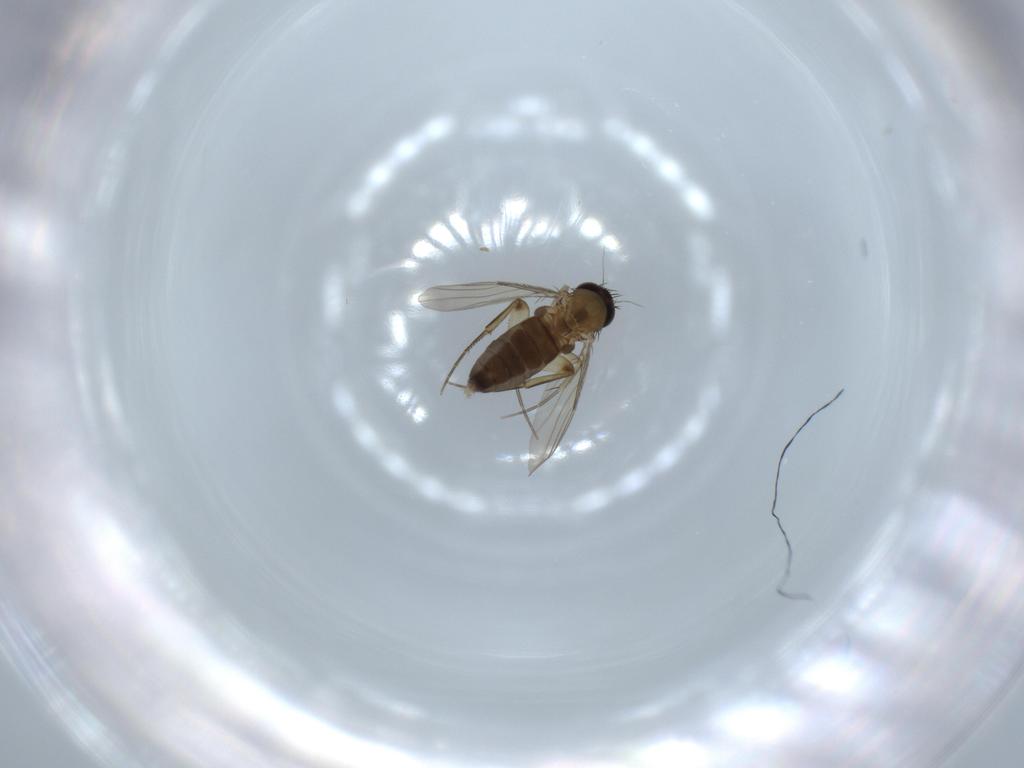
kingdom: Animalia
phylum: Arthropoda
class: Insecta
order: Diptera
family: Phoridae
